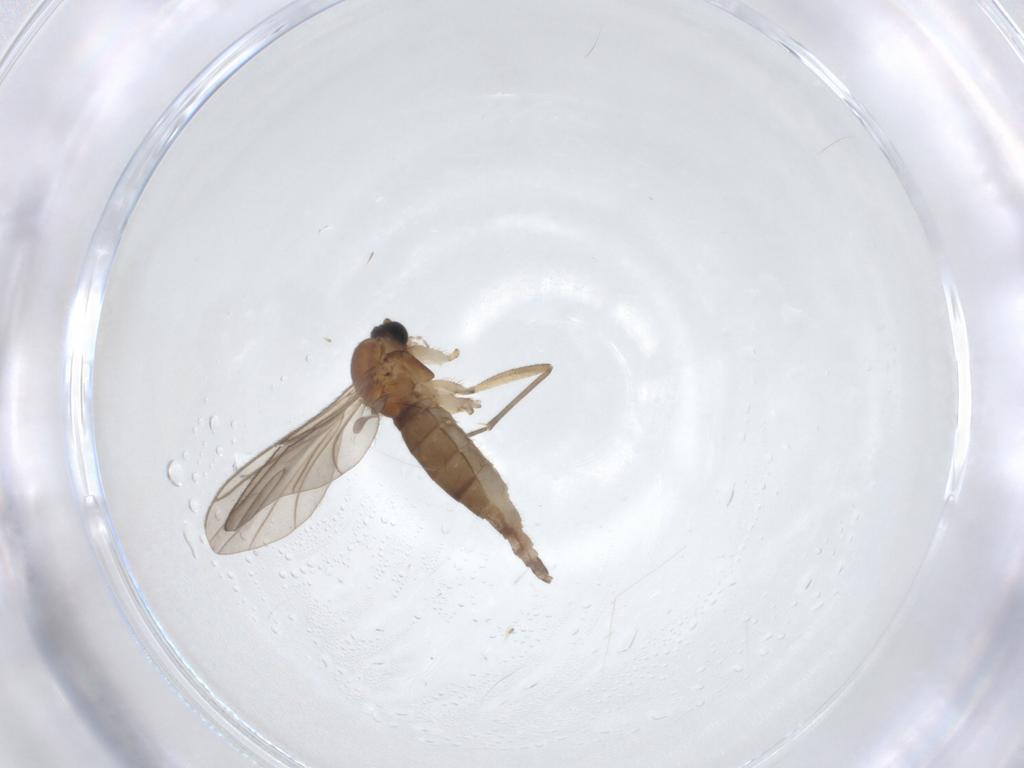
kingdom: Animalia
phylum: Arthropoda
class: Insecta
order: Diptera
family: Sciaridae
